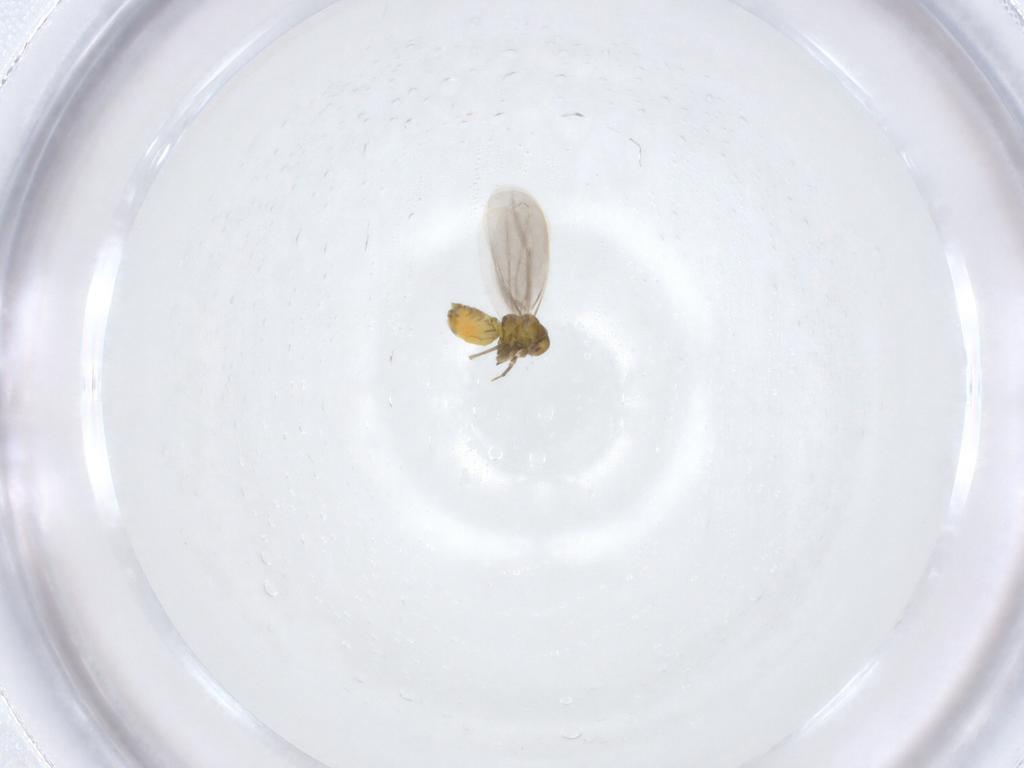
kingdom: Animalia
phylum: Arthropoda
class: Insecta
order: Hemiptera
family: Aleyrodidae
